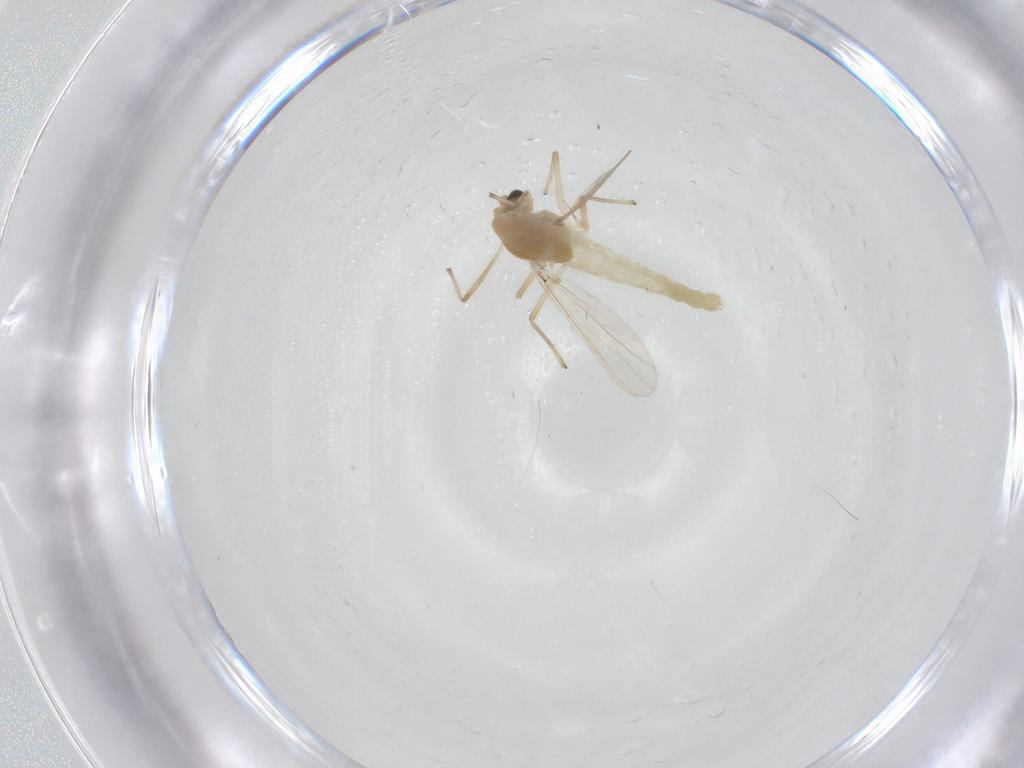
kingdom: Animalia
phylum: Arthropoda
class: Insecta
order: Diptera
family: Chironomidae
